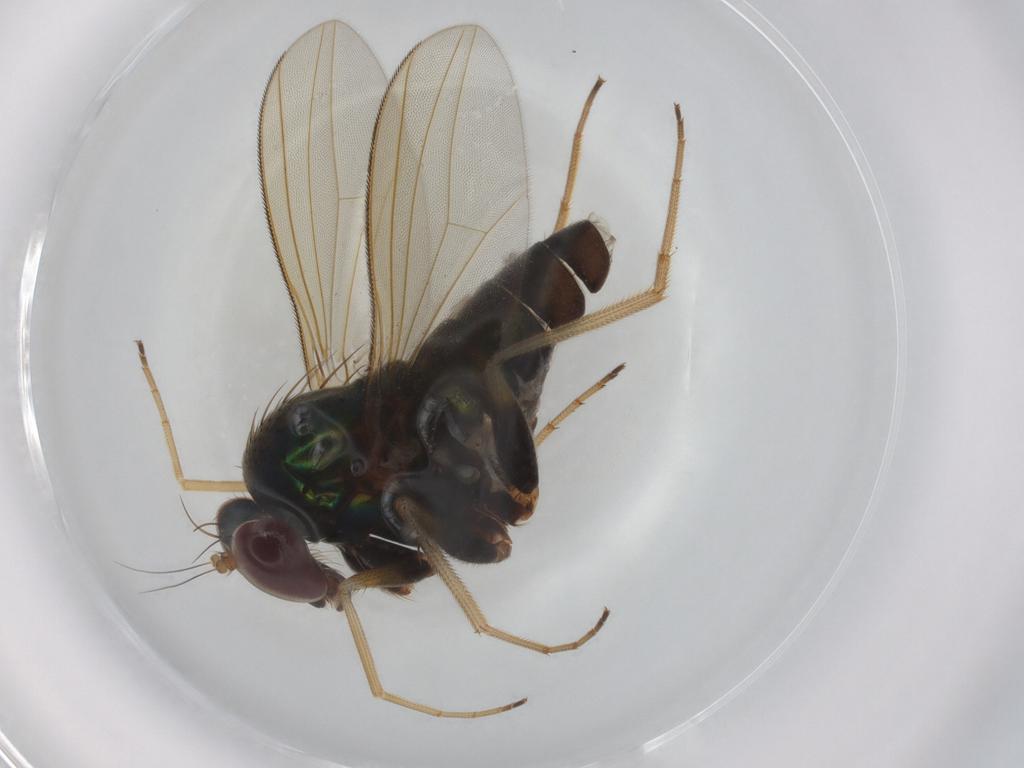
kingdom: Animalia
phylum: Arthropoda
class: Insecta
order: Diptera
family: Dolichopodidae
